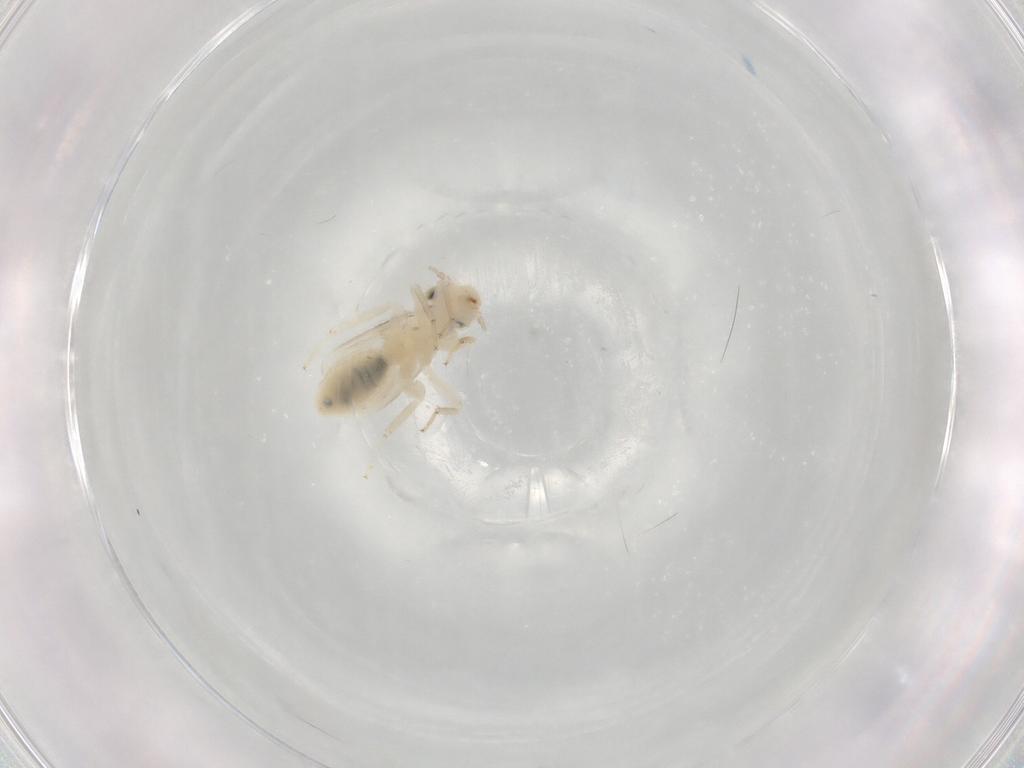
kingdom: Animalia
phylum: Arthropoda
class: Insecta
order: Psocodea
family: Lepidopsocidae
